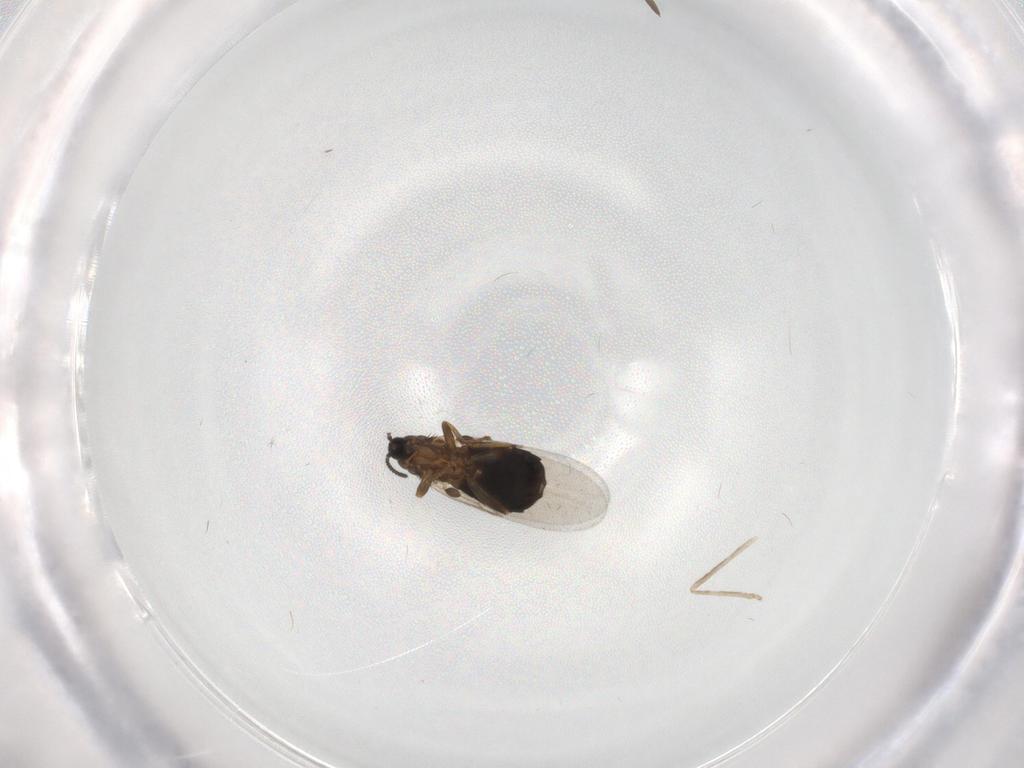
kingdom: Animalia
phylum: Arthropoda
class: Insecta
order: Diptera
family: Scatopsidae
